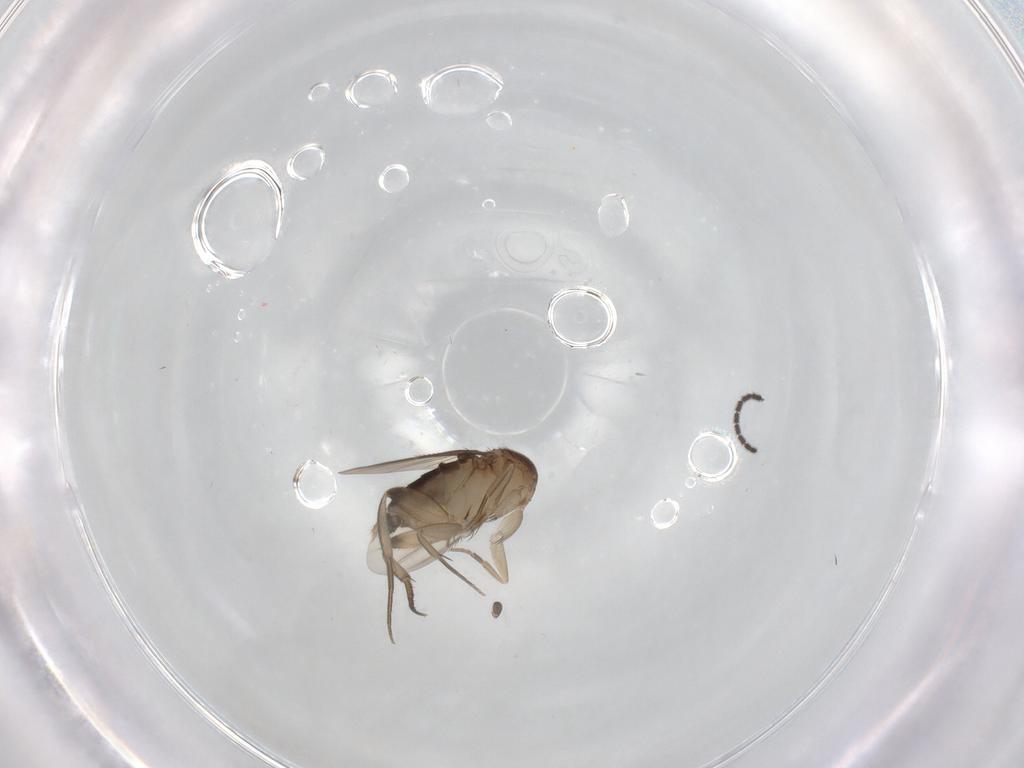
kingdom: Animalia
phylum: Arthropoda
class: Insecta
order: Diptera
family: Phoridae
